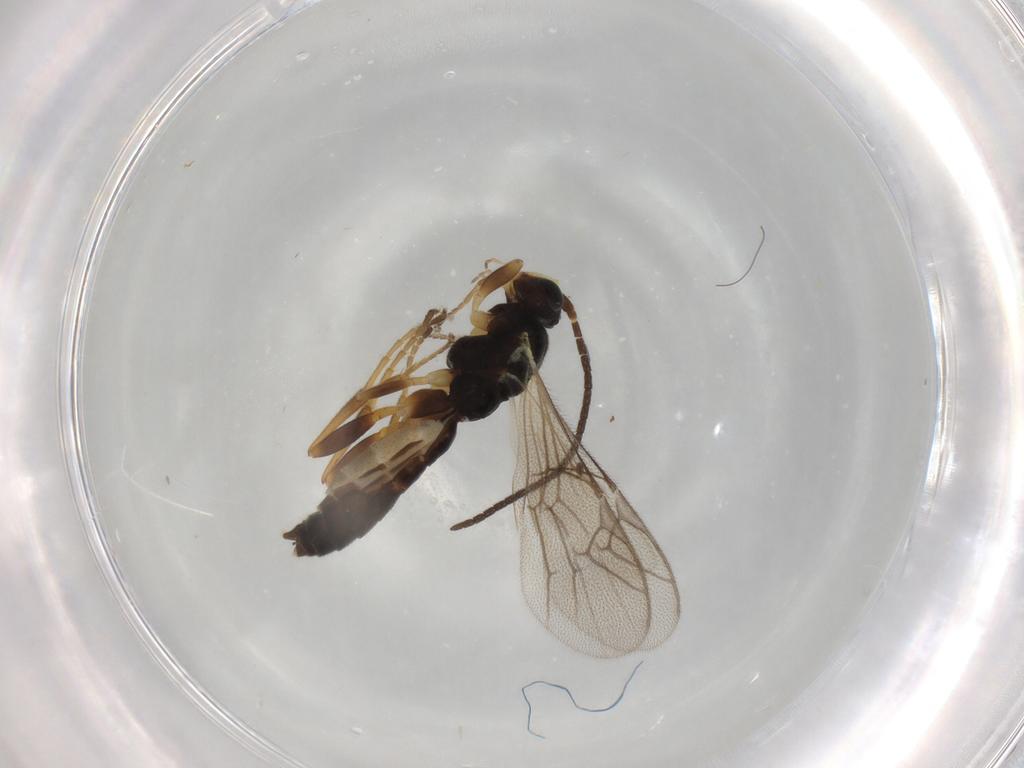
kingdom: Animalia
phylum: Arthropoda
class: Insecta
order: Hymenoptera
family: Ichneumonidae
